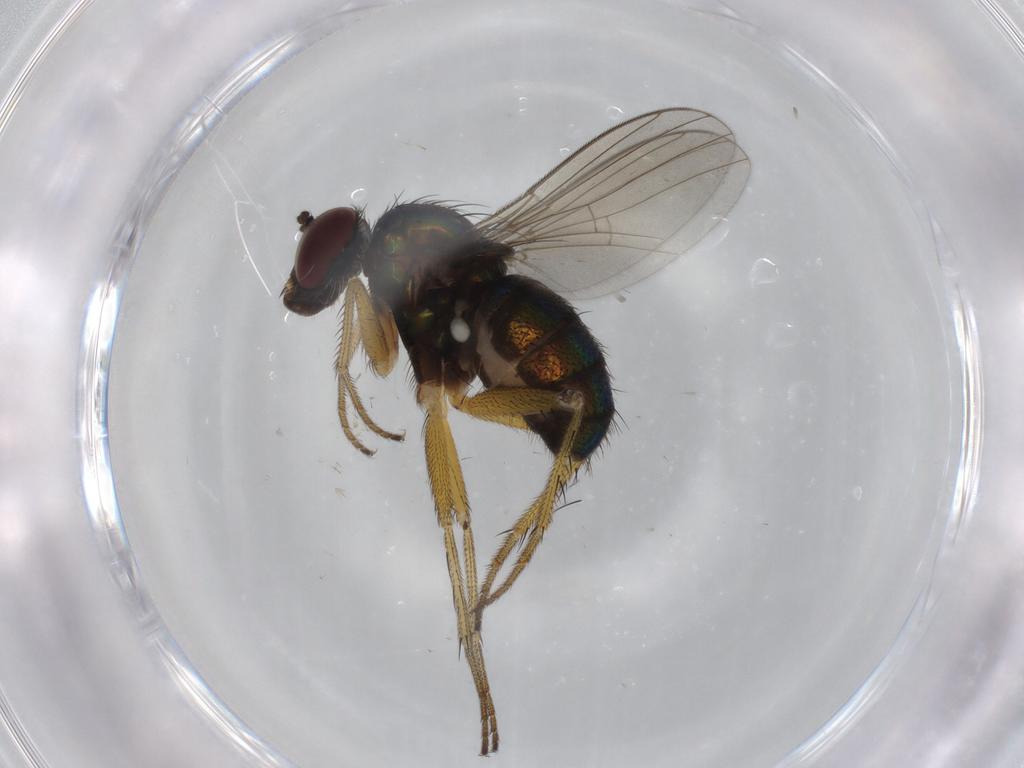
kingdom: Animalia
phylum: Arthropoda
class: Insecta
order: Diptera
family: Dolichopodidae
